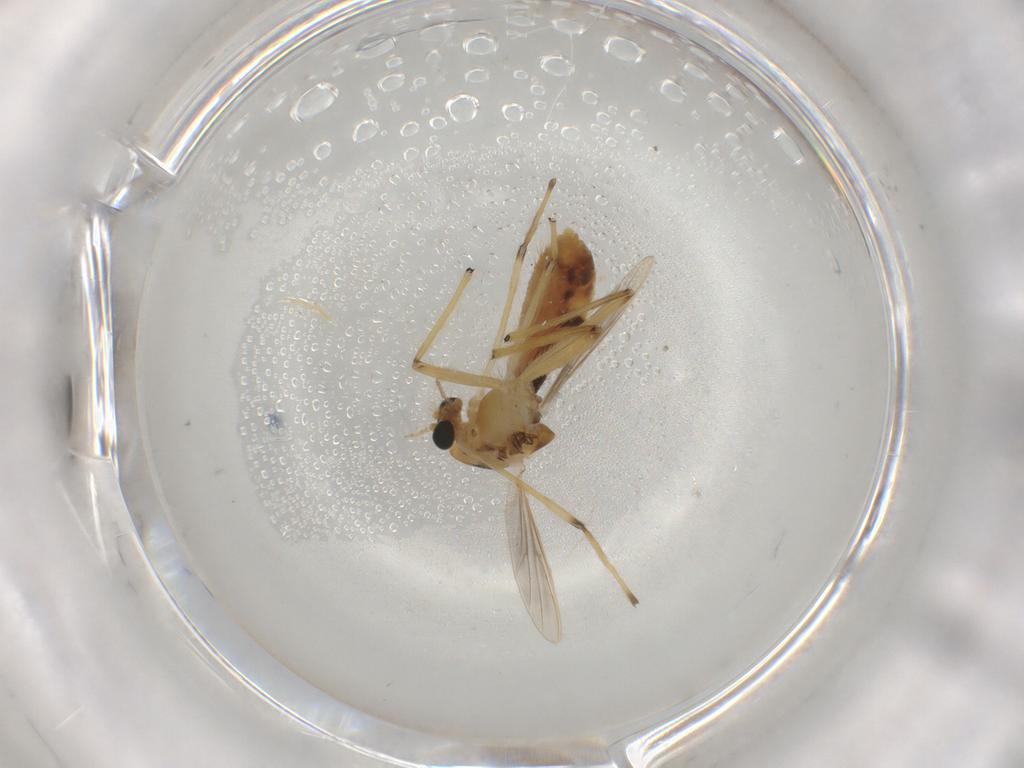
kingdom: Animalia
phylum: Arthropoda
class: Insecta
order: Diptera
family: Chironomidae
